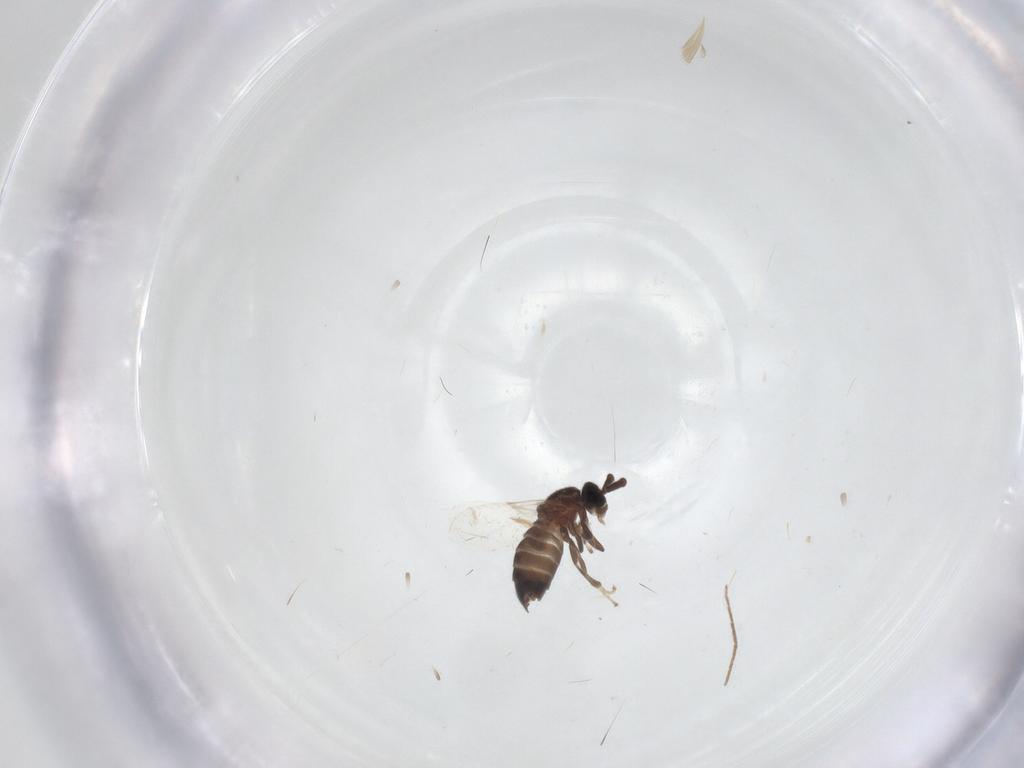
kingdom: Animalia
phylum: Arthropoda
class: Insecta
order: Diptera
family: Scatopsidae
